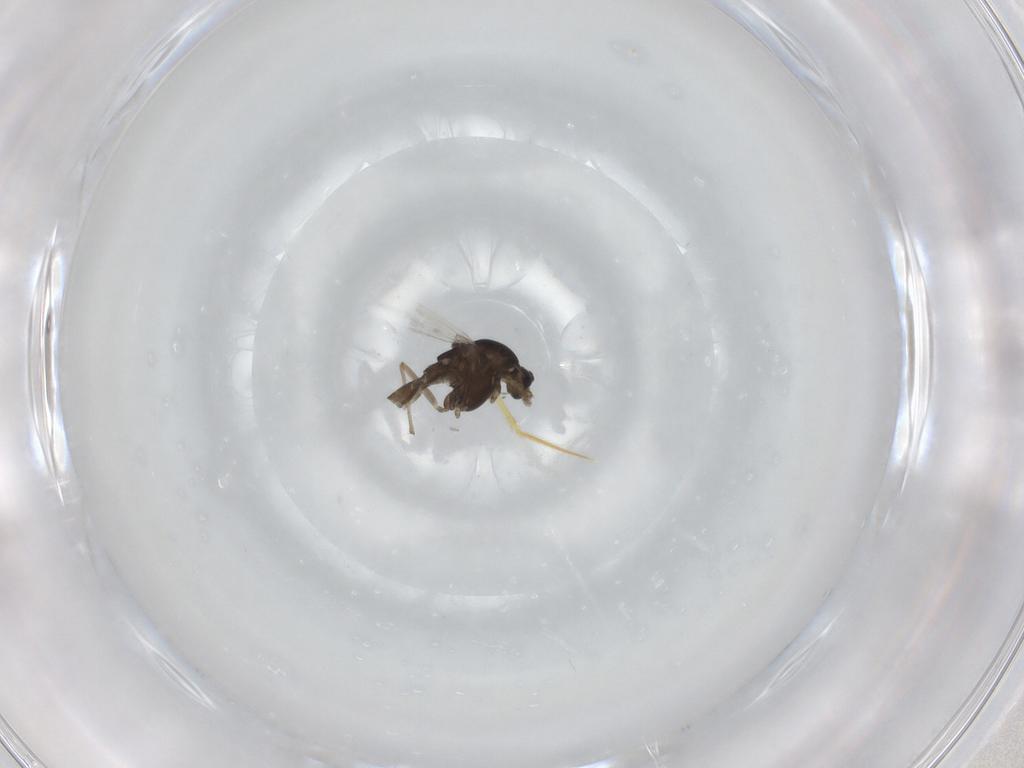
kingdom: Animalia
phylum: Arthropoda
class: Insecta
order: Diptera
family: Chironomidae
